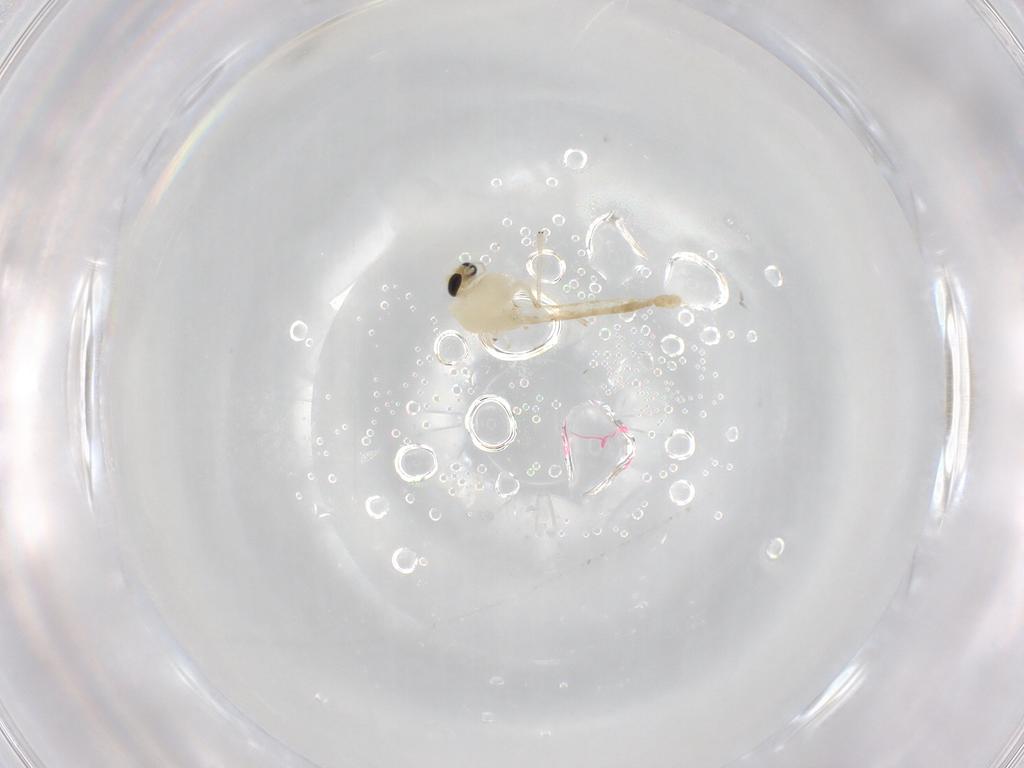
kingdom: Animalia
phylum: Arthropoda
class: Insecta
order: Diptera
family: Chironomidae
